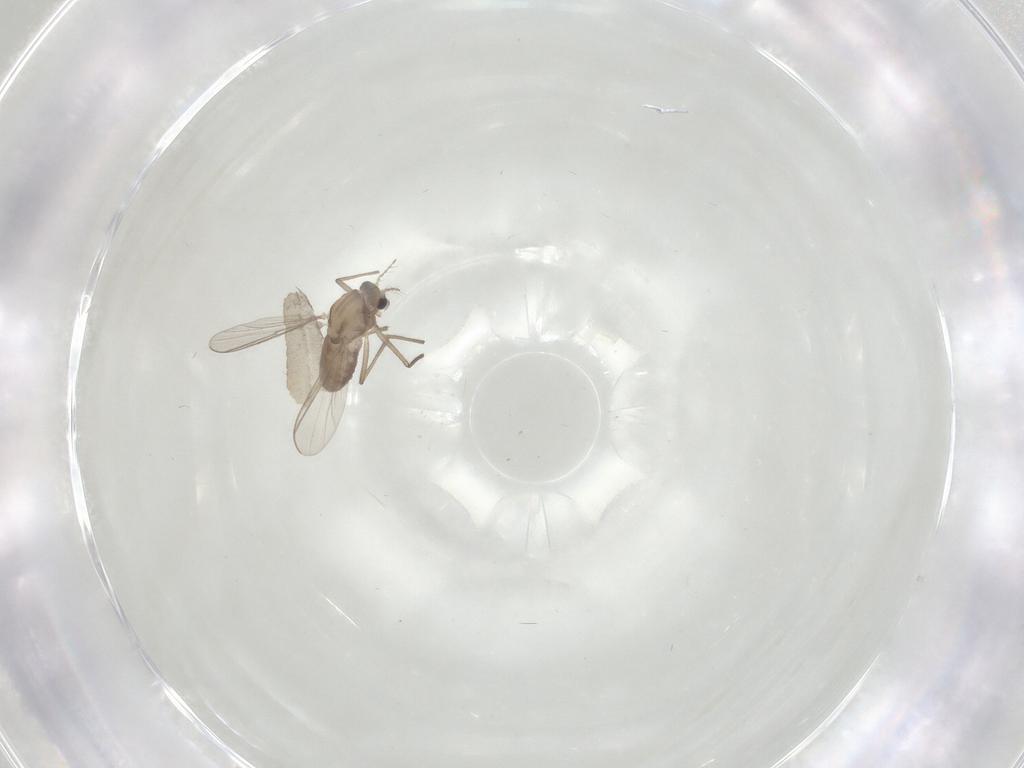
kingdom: Animalia
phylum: Arthropoda
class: Insecta
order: Diptera
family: Chironomidae
